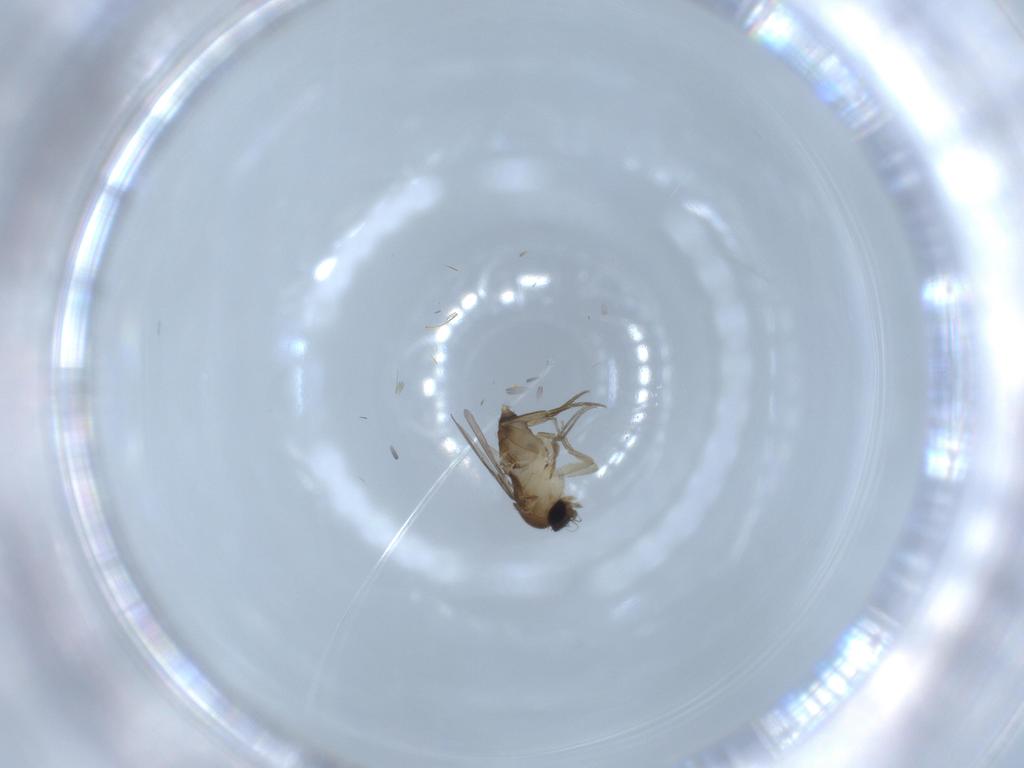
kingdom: Animalia
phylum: Arthropoda
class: Insecta
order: Diptera
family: Phoridae
